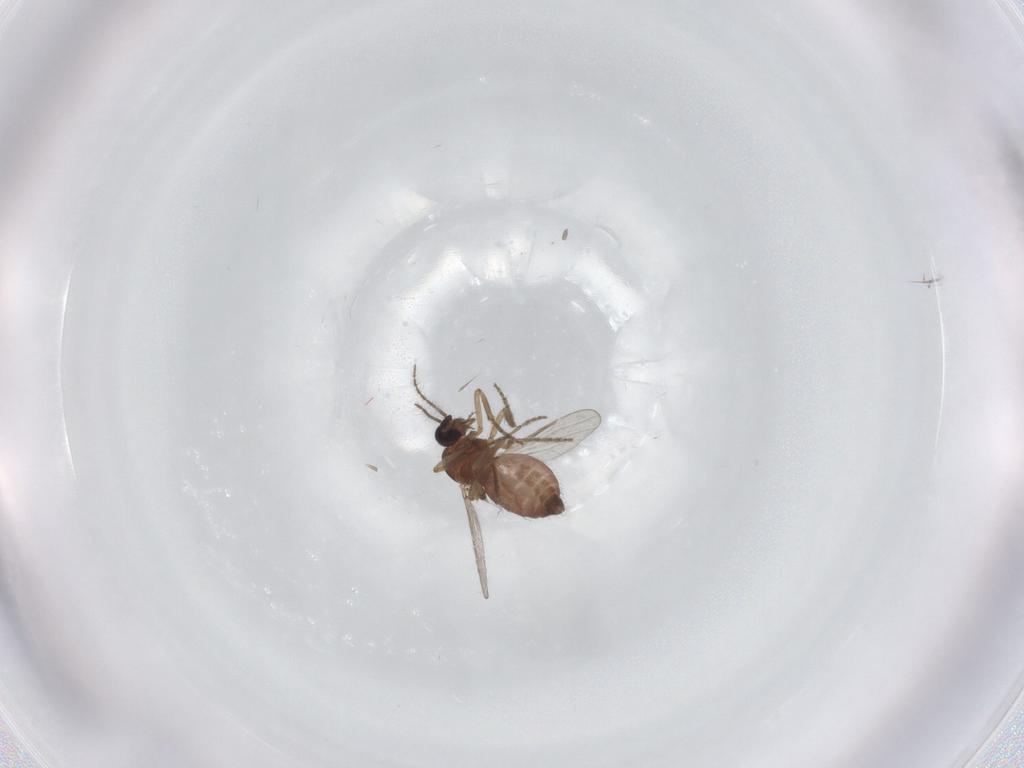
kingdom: Animalia
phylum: Arthropoda
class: Insecta
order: Diptera
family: Ceratopogonidae
